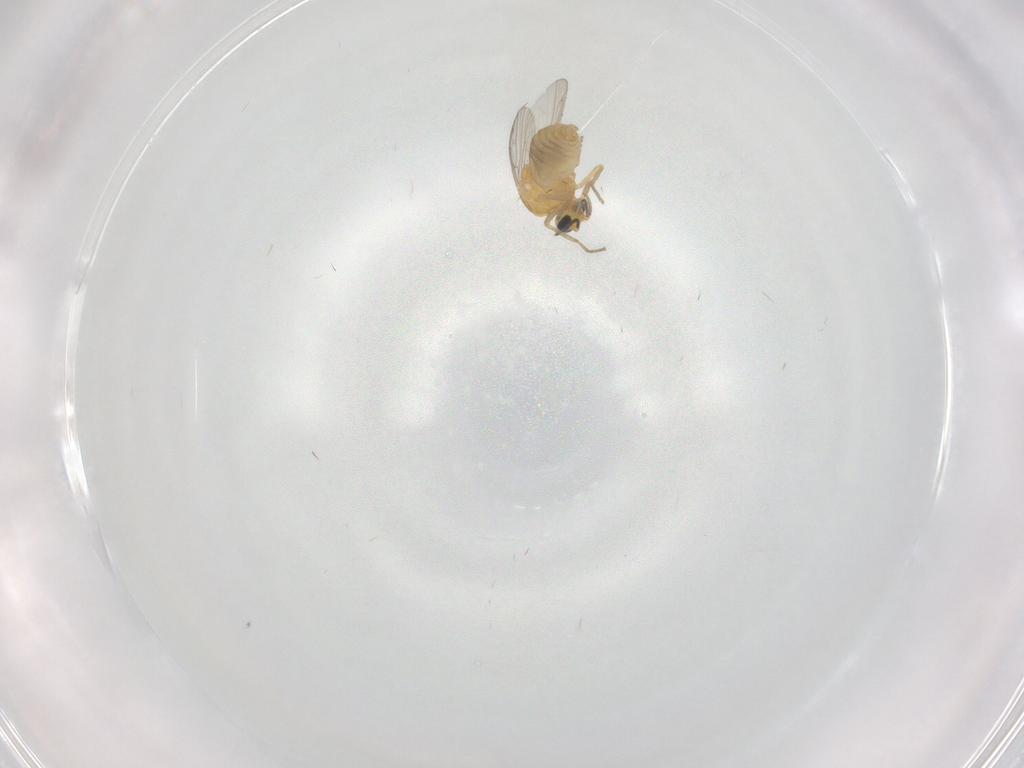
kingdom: Animalia
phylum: Arthropoda
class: Insecta
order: Diptera
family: Ceratopogonidae
